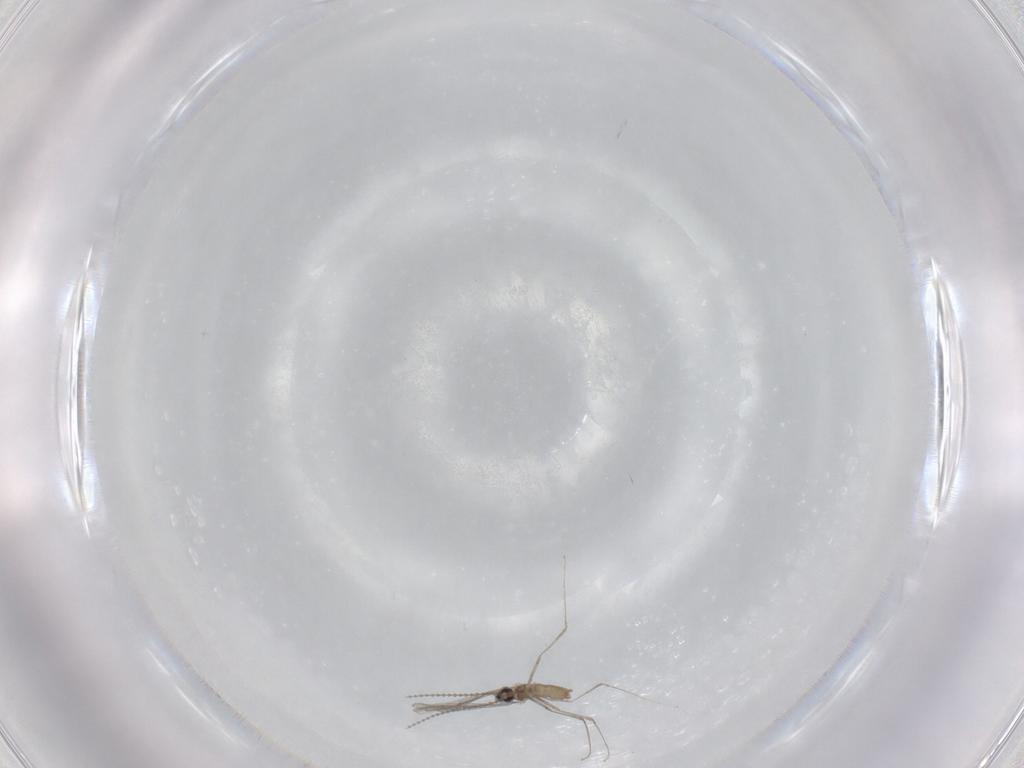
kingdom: Animalia
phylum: Arthropoda
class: Insecta
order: Diptera
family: Cecidomyiidae
